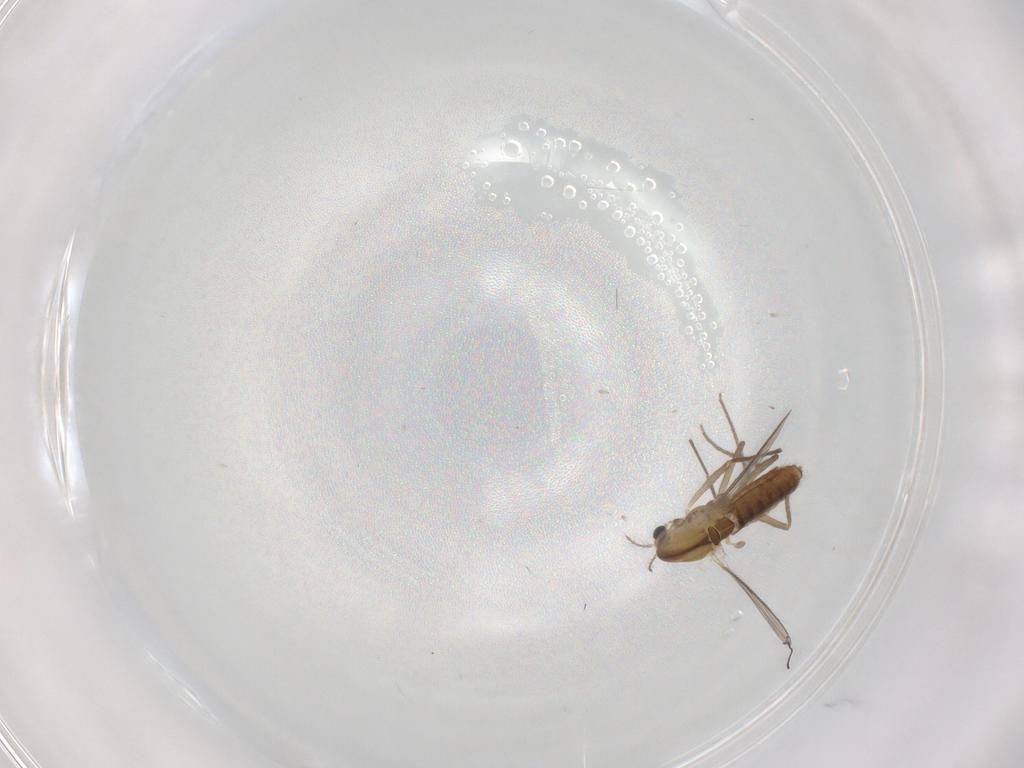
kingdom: Animalia
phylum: Arthropoda
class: Insecta
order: Diptera
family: Chironomidae
